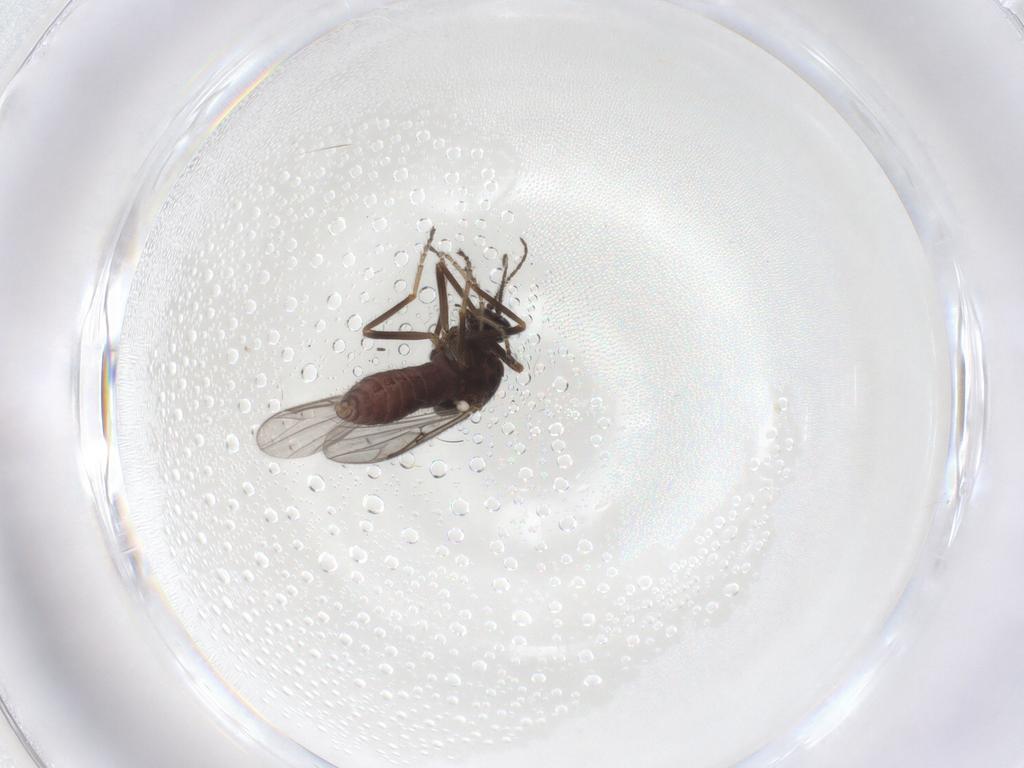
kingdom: Animalia
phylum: Arthropoda
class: Insecta
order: Diptera
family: Ceratopogonidae
